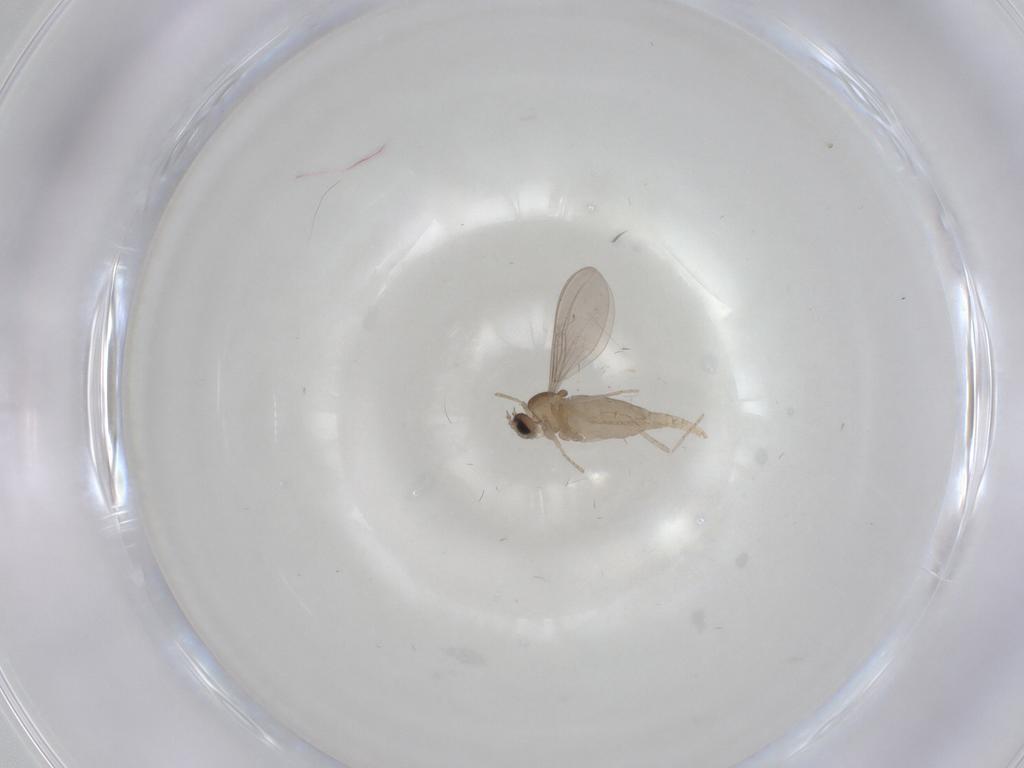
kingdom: Animalia
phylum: Arthropoda
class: Insecta
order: Diptera
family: Cecidomyiidae
